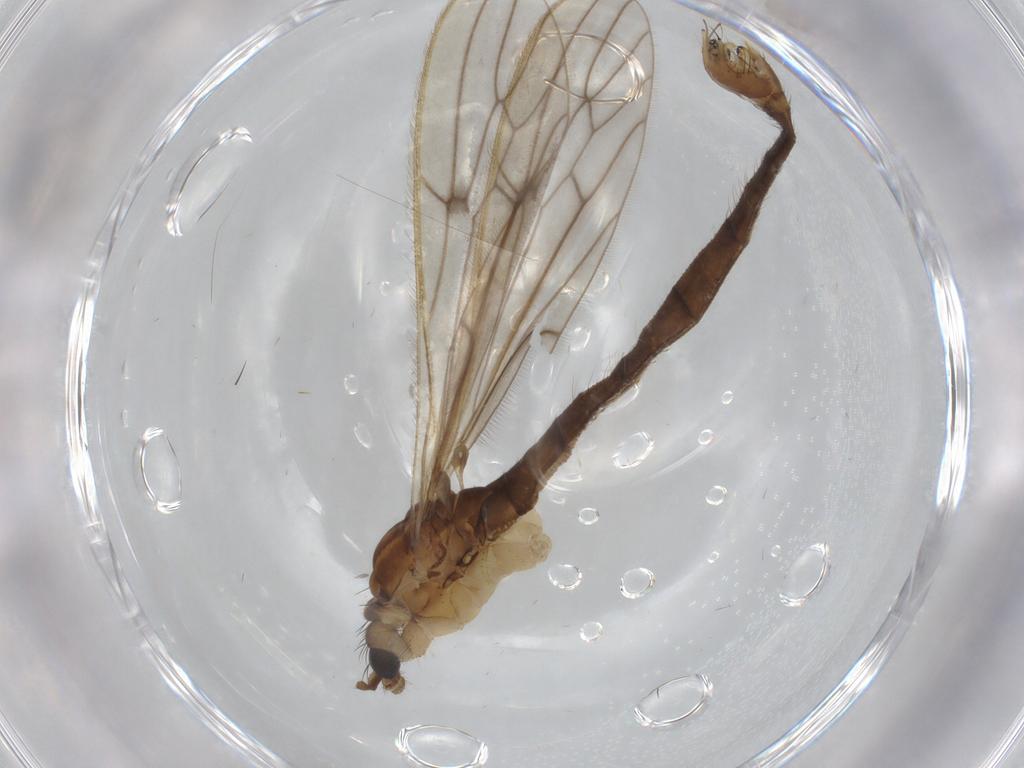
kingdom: Animalia
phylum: Arthropoda
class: Insecta
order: Diptera
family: Limoniidae
